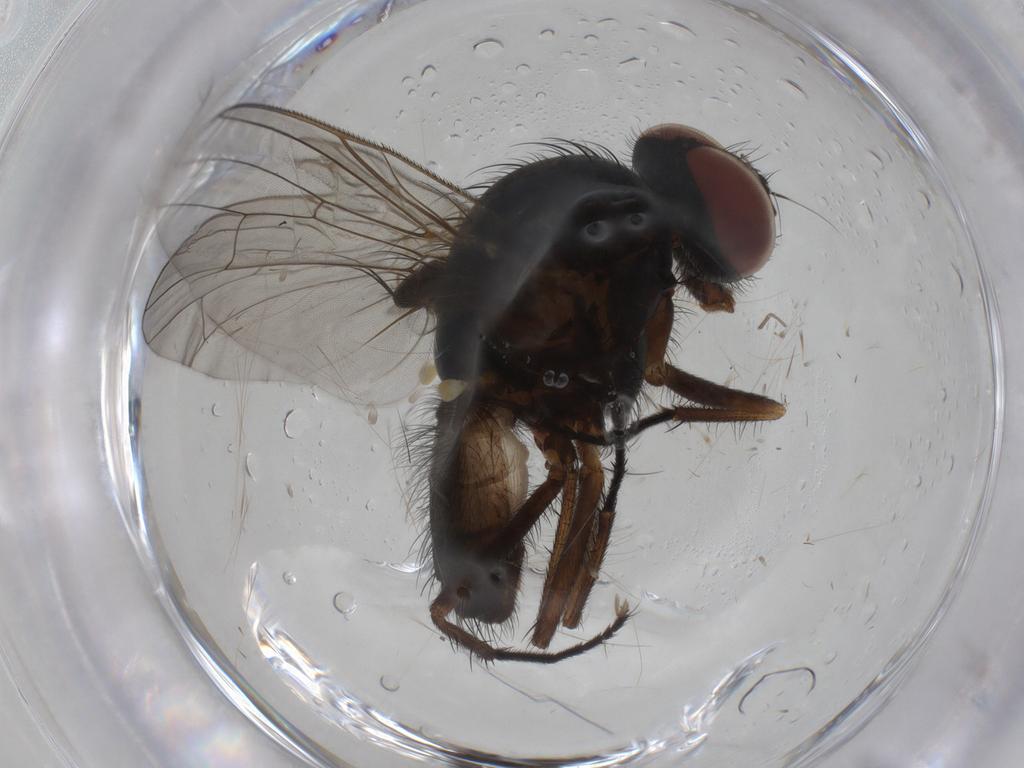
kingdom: Animalia
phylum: Arthropoda
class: Insecta
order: Diptera
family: Anthomyiidae
